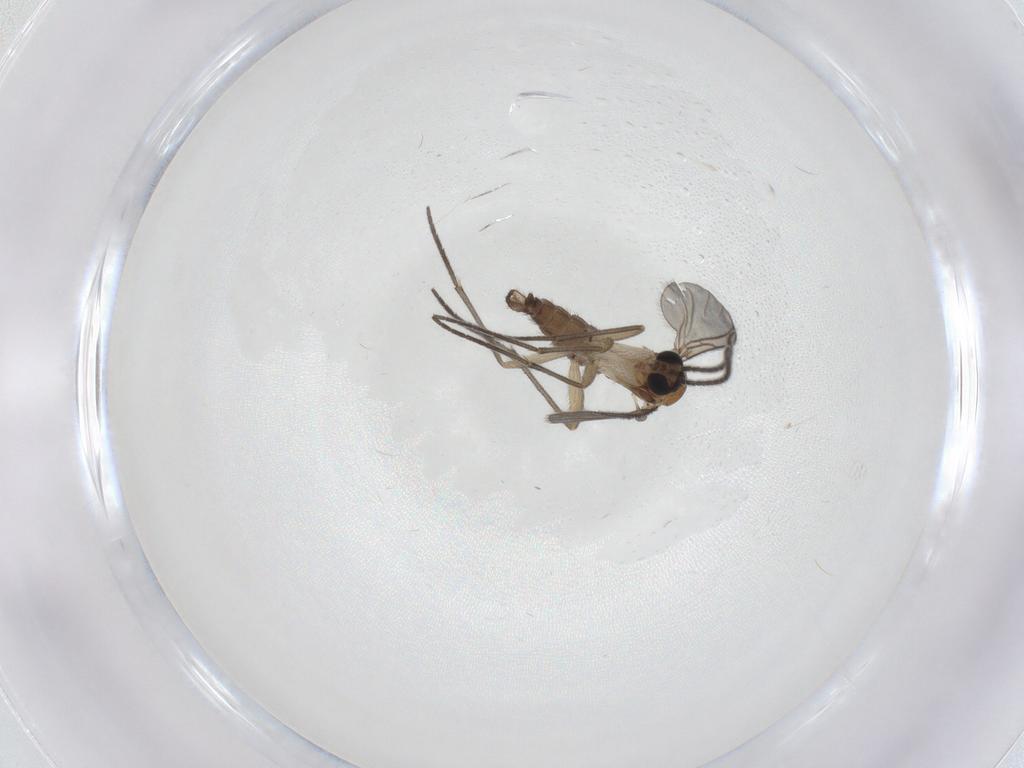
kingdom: Animalia
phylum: Arthropoda
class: Insecta
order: Diptera
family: Sciaridae
